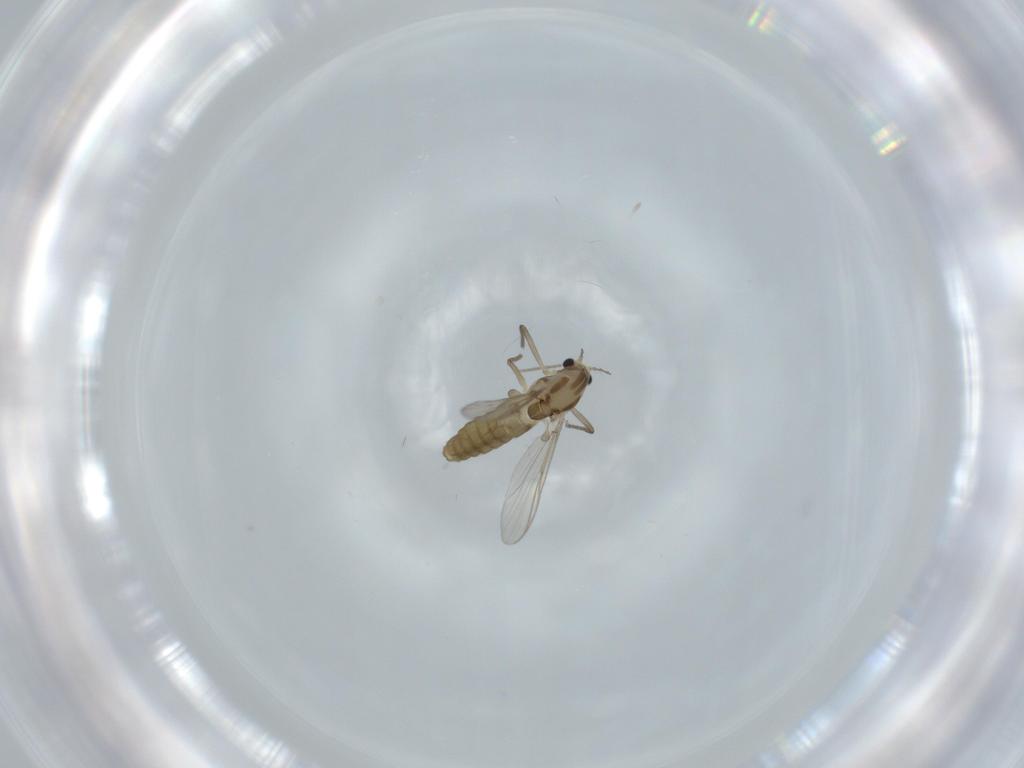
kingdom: Animalia
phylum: Arthropoda
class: Insecta
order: Diptera
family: Chironomidae
